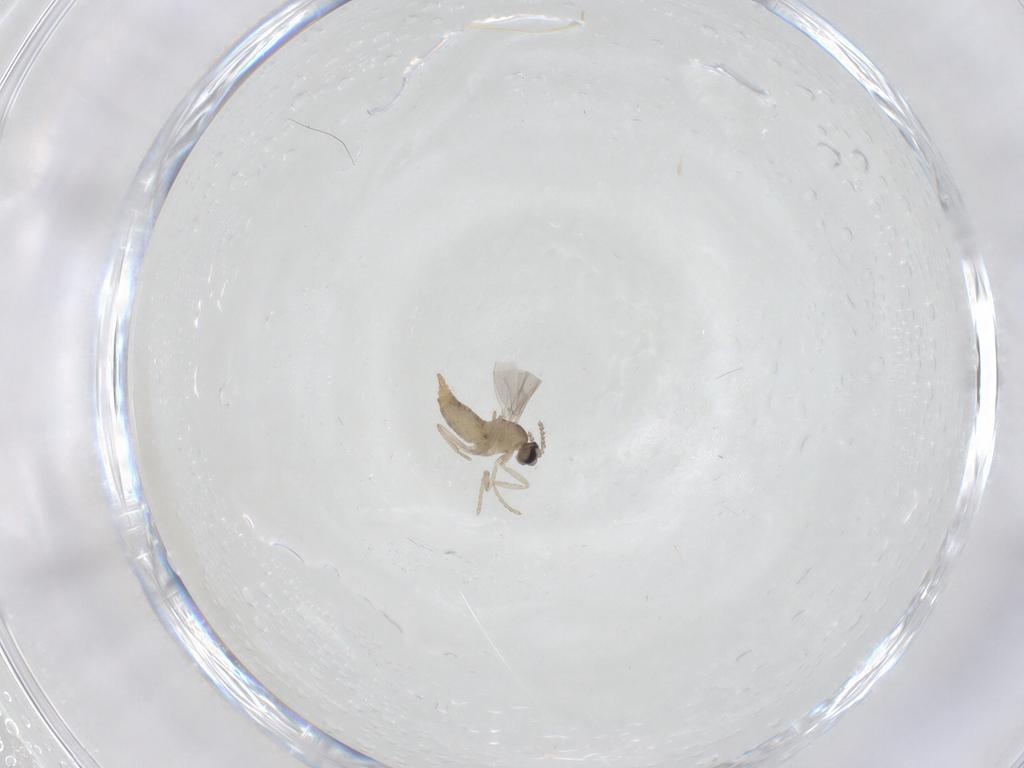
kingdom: Animalia
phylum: Arthropoda
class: Insecta
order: Diptera
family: Cecidomyiidae
